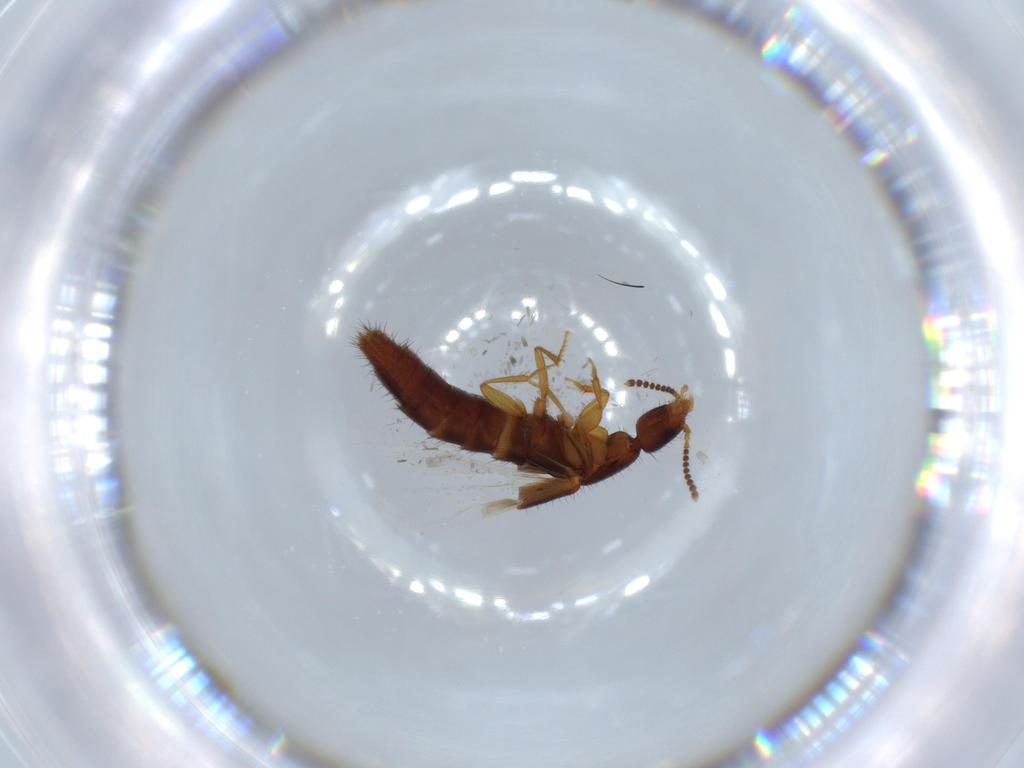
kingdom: Animalia
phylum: Arthropoda
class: Insecta
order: Coleoptera
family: Staphylinidae
